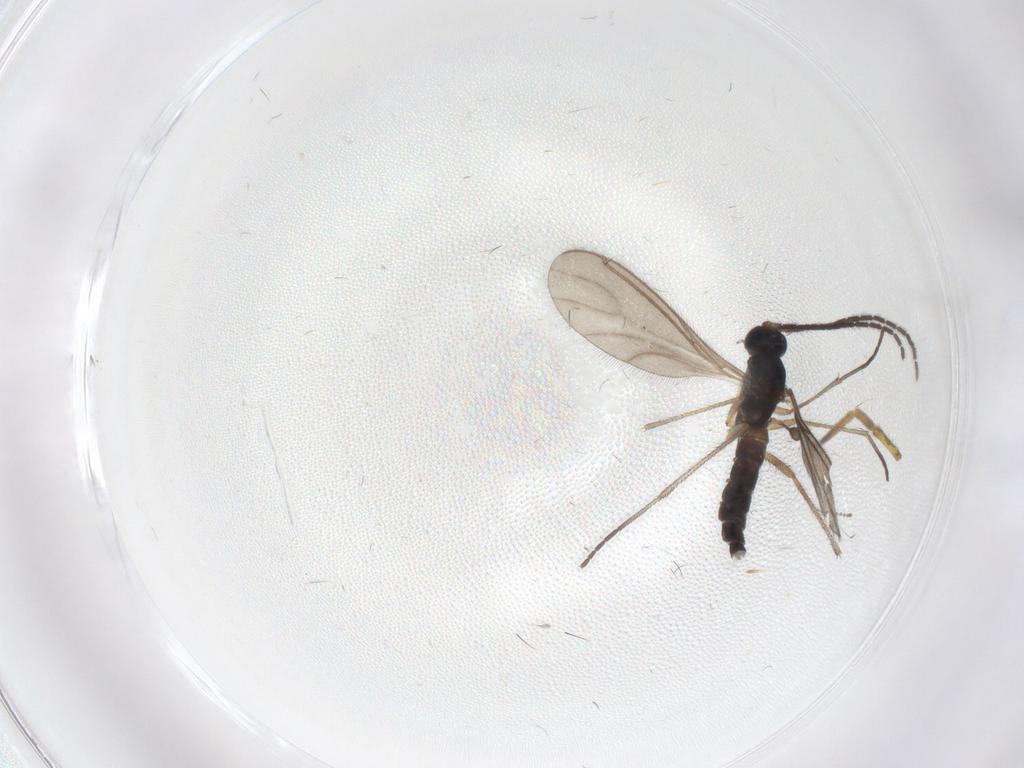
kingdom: Animalia
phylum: Arthropoda
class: Insecta
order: Diptera
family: Sciaridae
